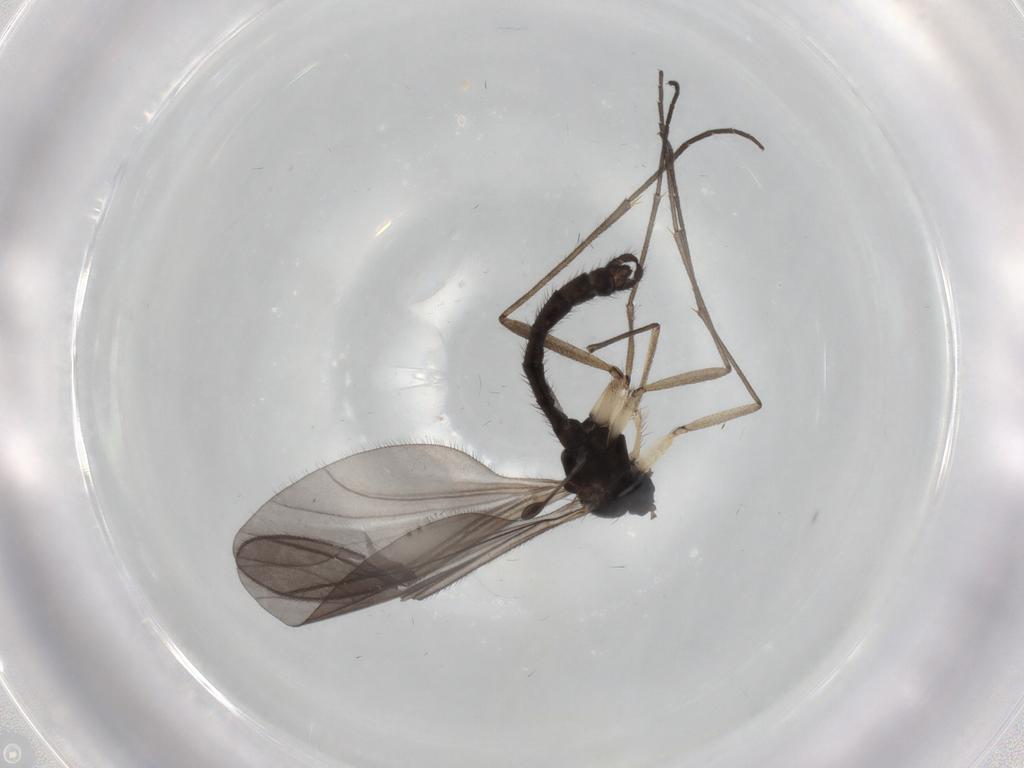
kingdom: Animalia
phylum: Arthropoda
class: Insecta
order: Diptera
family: Sciaridae
